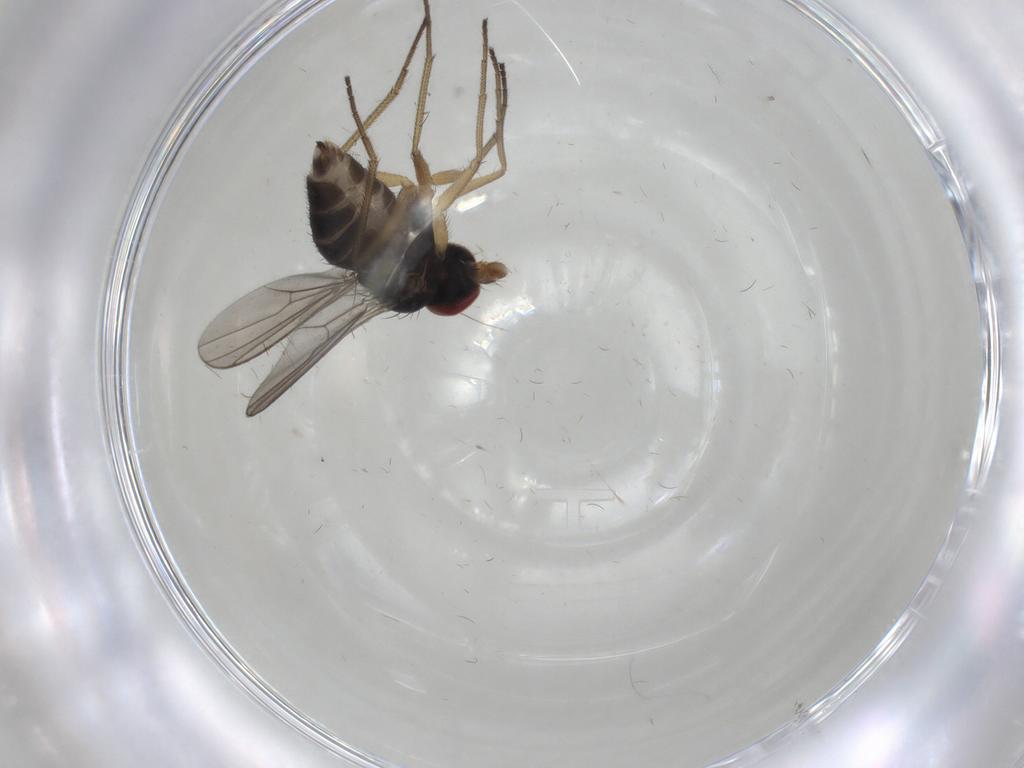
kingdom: Animalia
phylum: Arthropoda
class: Insecta
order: Diptera
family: Dolichopodidae
